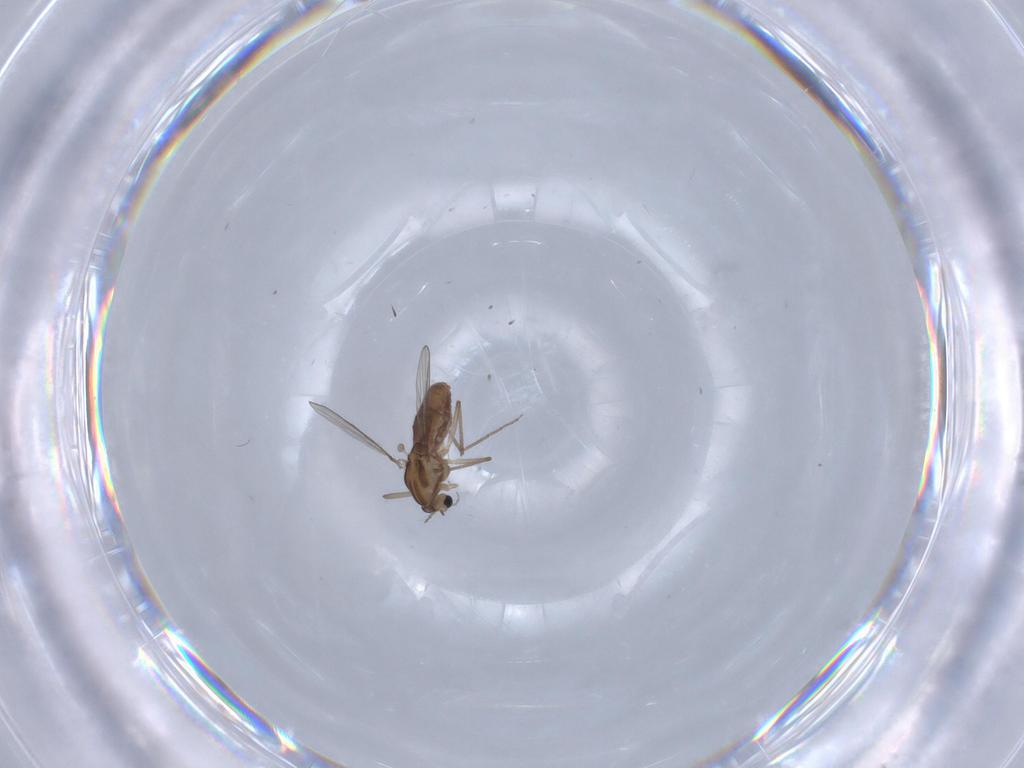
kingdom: Animalia
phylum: Arthropoda
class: Insecta
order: Diptera
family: Chironomidae
